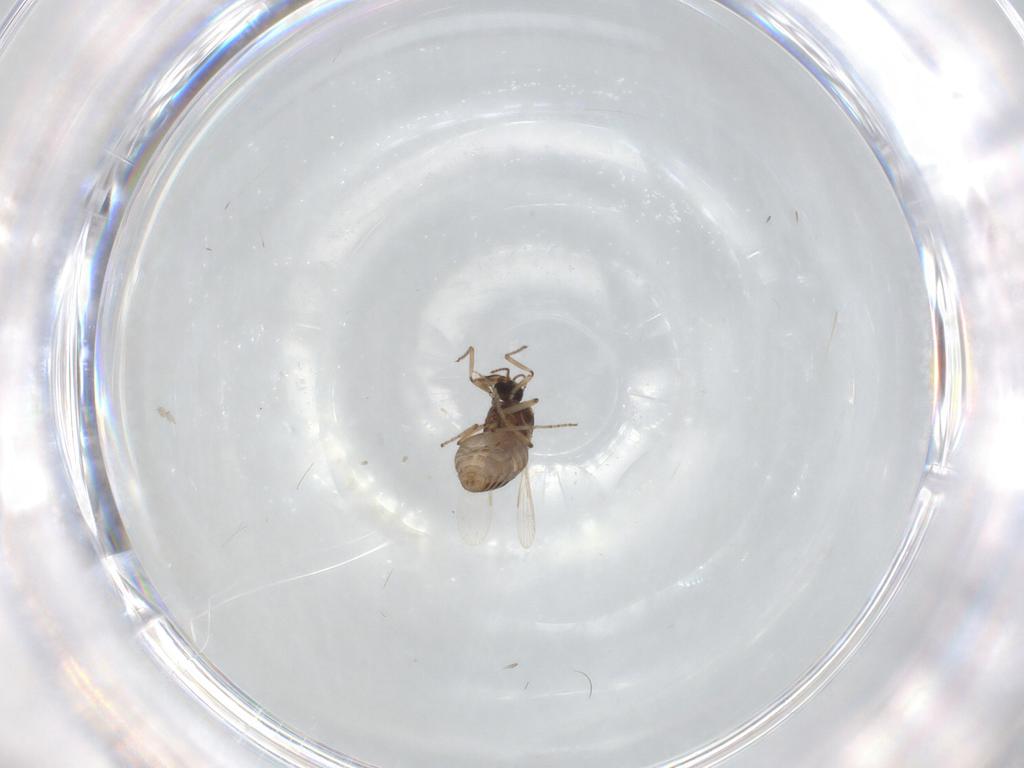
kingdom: Animalia
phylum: Arthropoda
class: Insecta
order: Diptera
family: Ceratopogonidae
